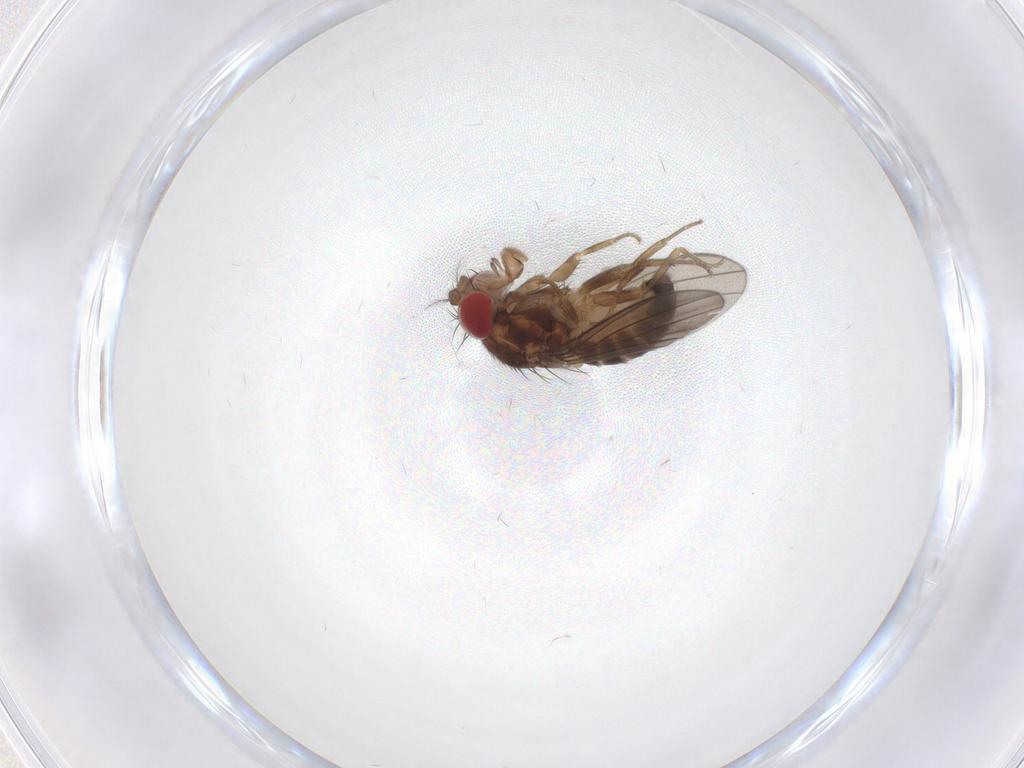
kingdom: Animalia
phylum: Arthropoda
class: Insecta
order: Diptera
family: Drosophilidae
